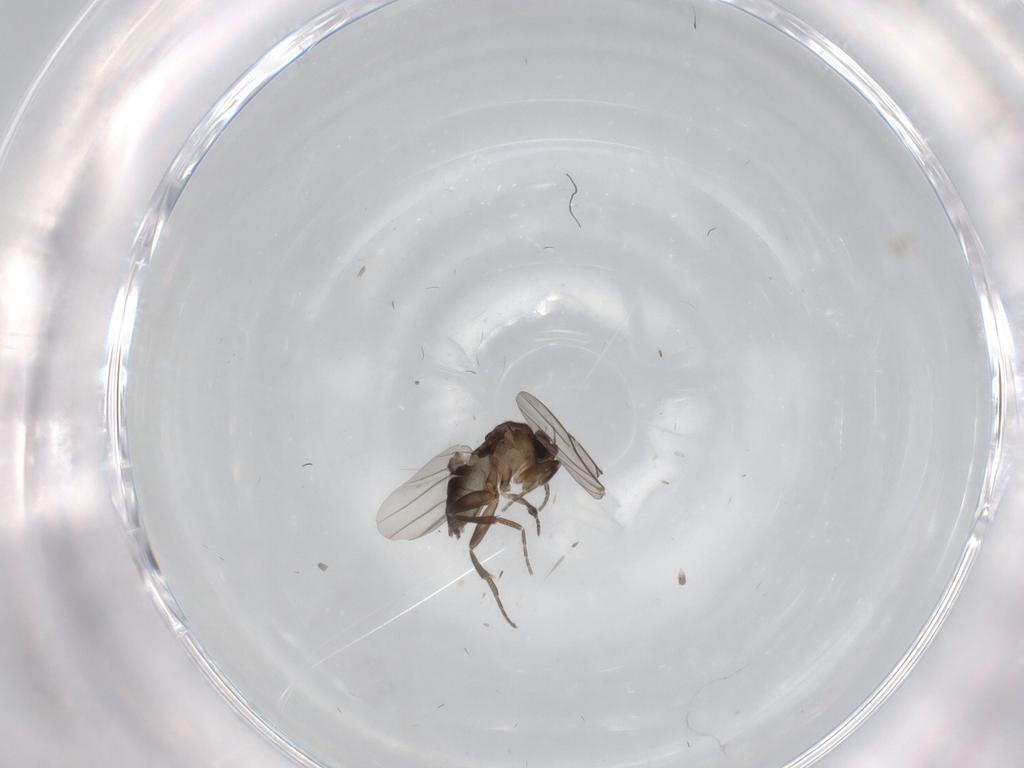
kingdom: Animalia
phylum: Arthropoda
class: Insecta
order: Diptera
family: Phoridae
